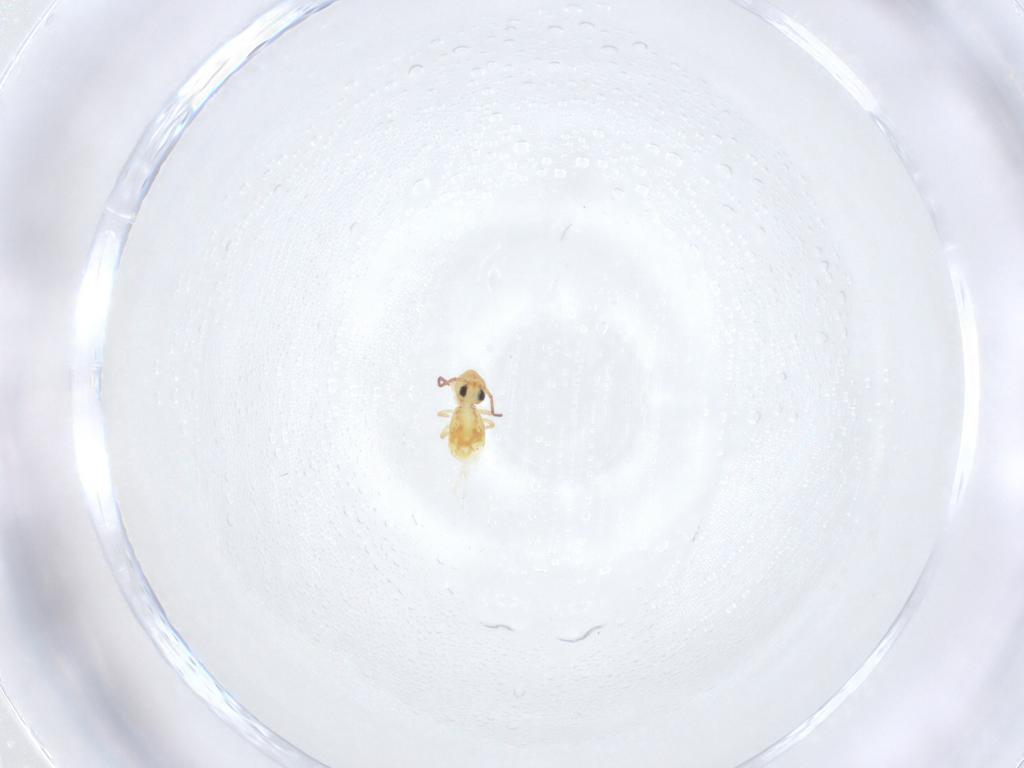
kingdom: Animalia
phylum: Arthropoda
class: Collembola
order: Symphypleona
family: Bourletiellidae
